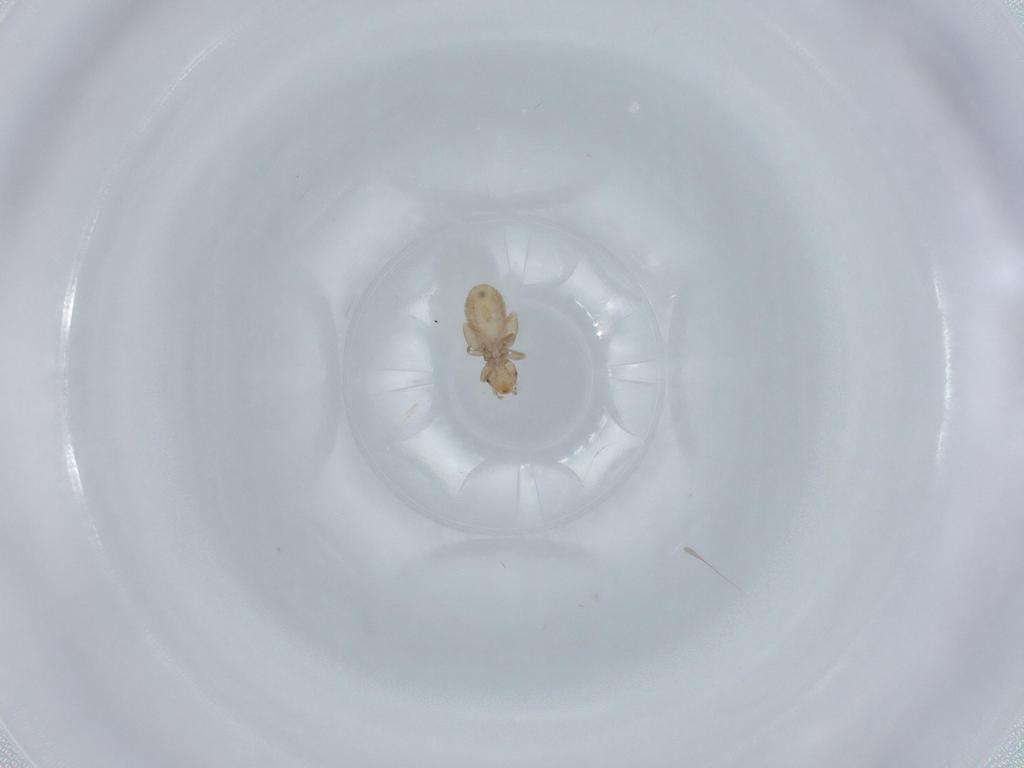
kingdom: Animalia
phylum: Arthropoda
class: Insecta
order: Psocodea
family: Liposcelididae
